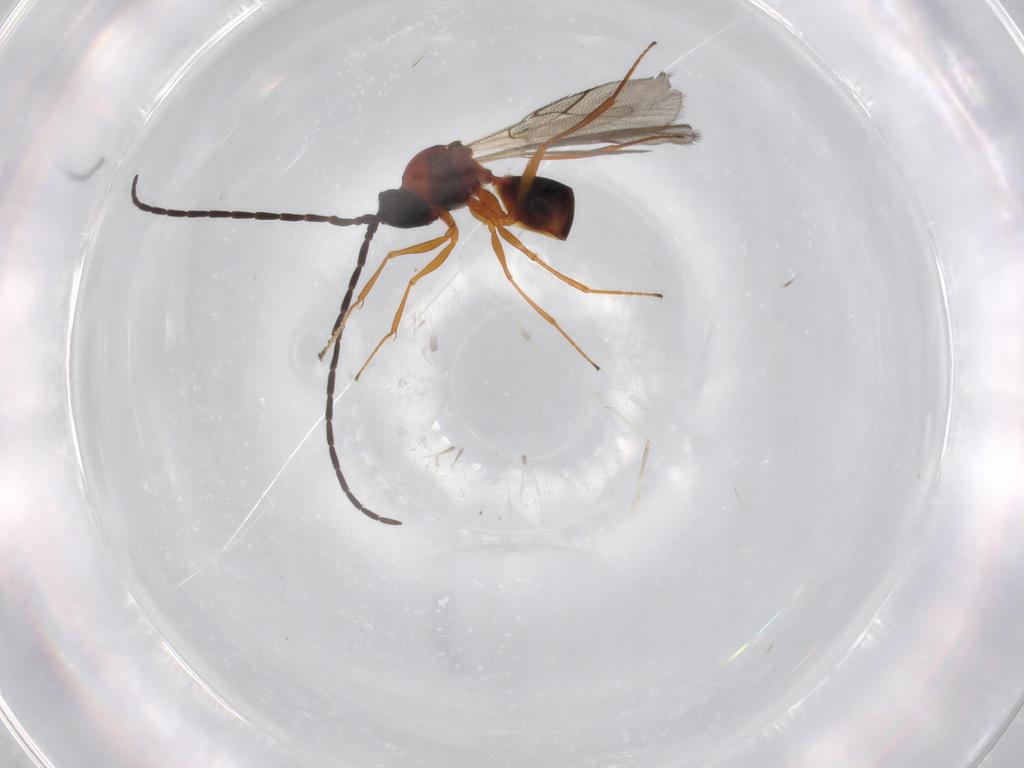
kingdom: Animalia
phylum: Arthropoda
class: Insecta
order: Hymenoptera
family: Figitidae
